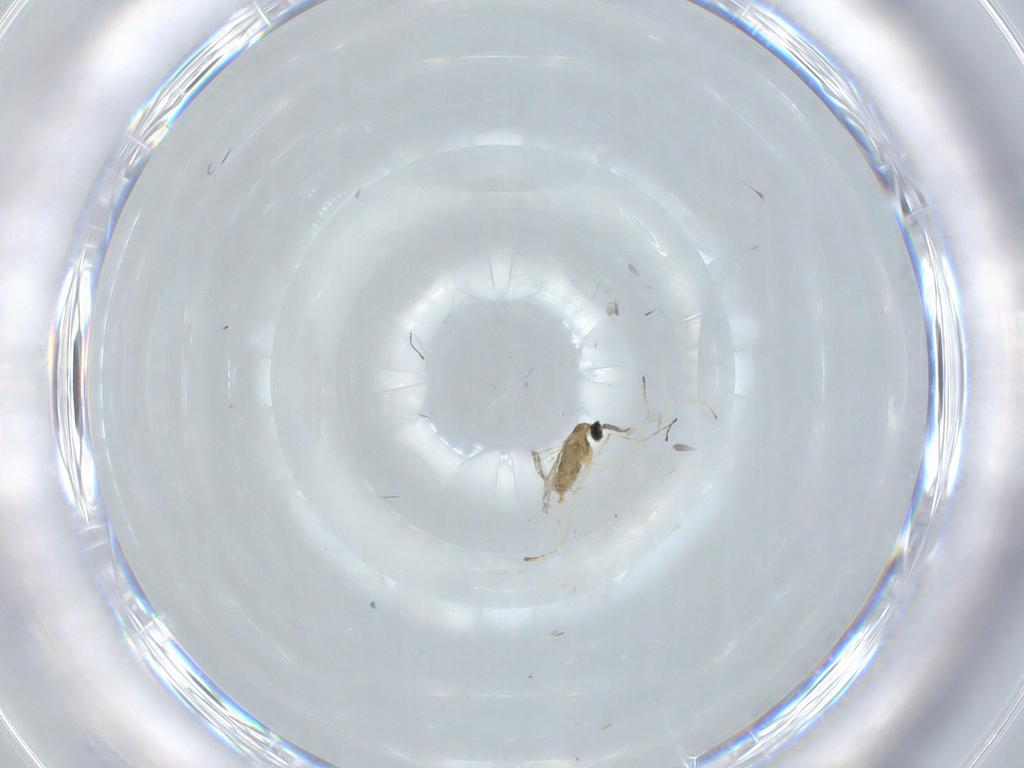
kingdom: Animalia
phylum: Arthropoda
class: Insecta
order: Diptera
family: Cecidomyiidae
